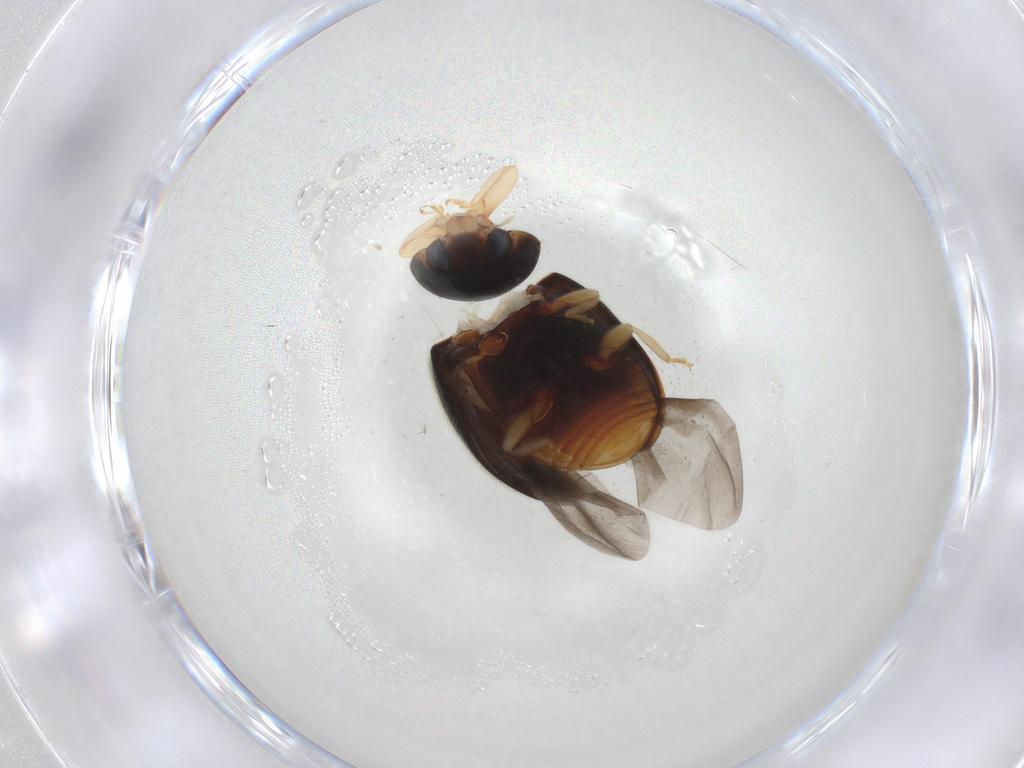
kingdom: Animalia
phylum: Arthropoda
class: Insecta
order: Coleoptera
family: Coccinellidae
